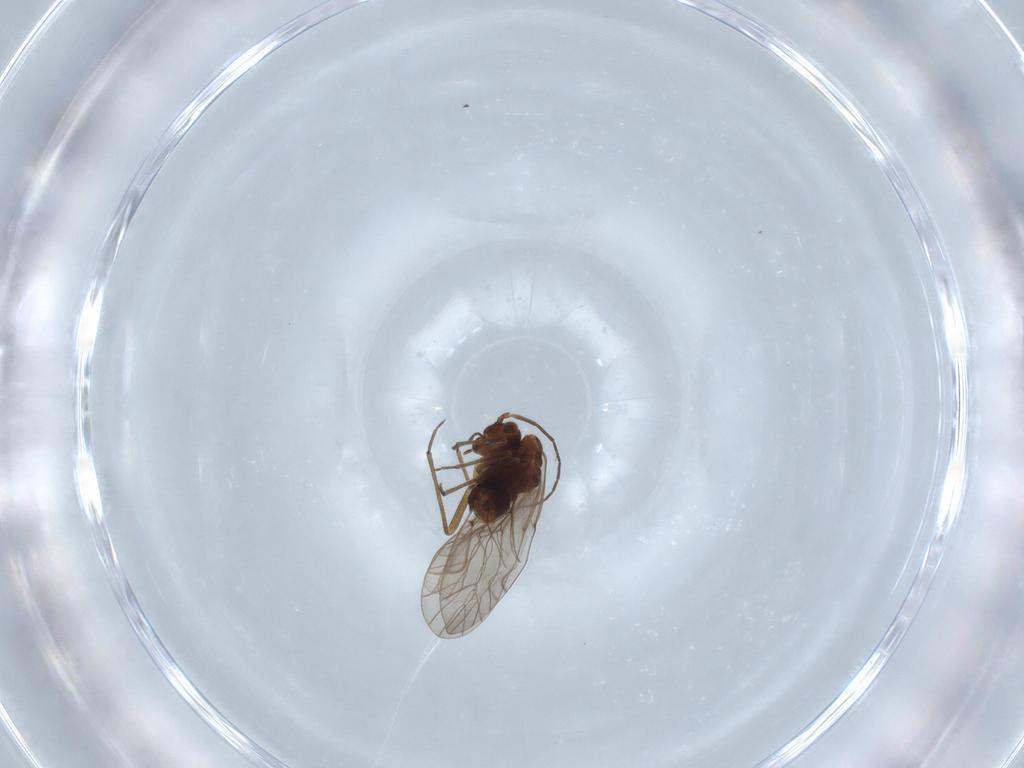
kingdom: Animalia
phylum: Arthropoda
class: Insecta
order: Psocodea
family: Lachesillidae
